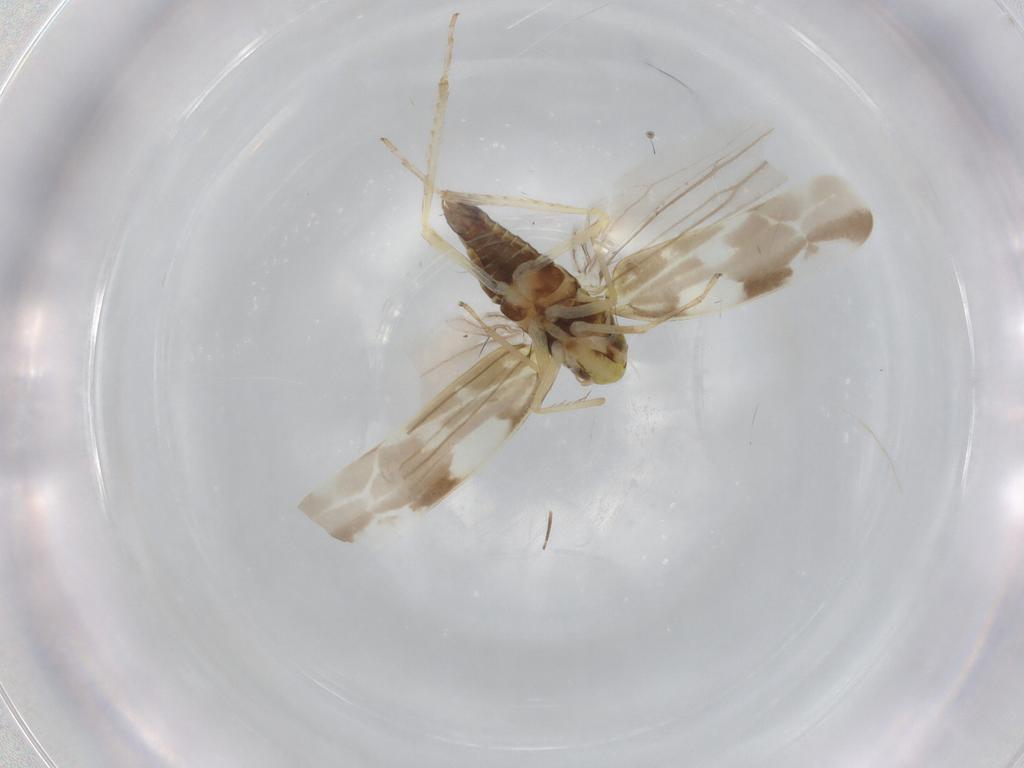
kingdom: Animalia
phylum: Arthropoda
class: Insecta
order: Hemiptera
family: Cicadellidae
